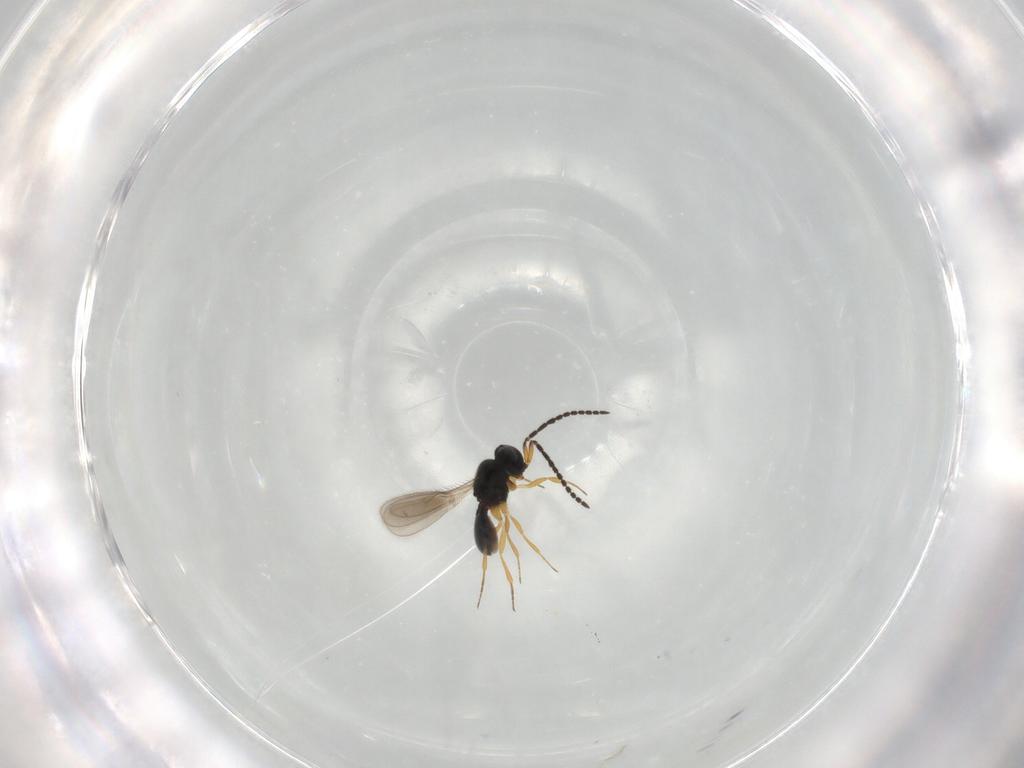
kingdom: Animalia
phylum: Arthropoda
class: Insecta
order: Hymenoptera
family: Scelionidae
